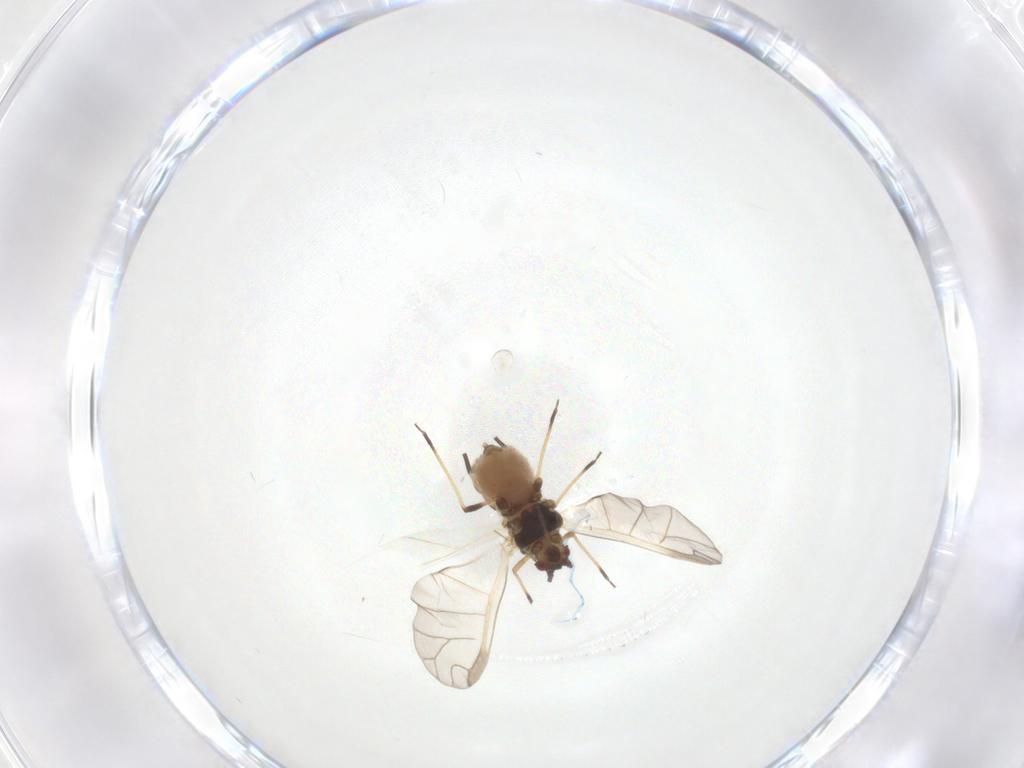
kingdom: Animalia
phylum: Arthropoda
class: Insecta
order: Hemiptera
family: Aphididae
